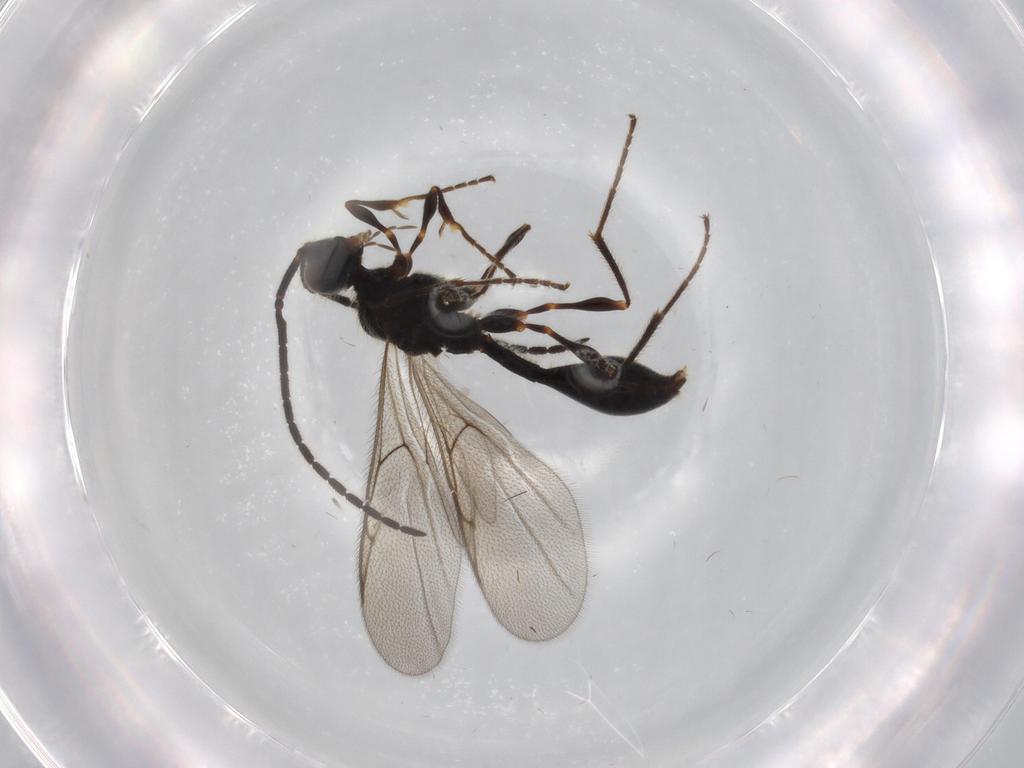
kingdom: Animalia
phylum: Arthropoda
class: Insecta
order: Hymenoptera
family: Diapriidae
